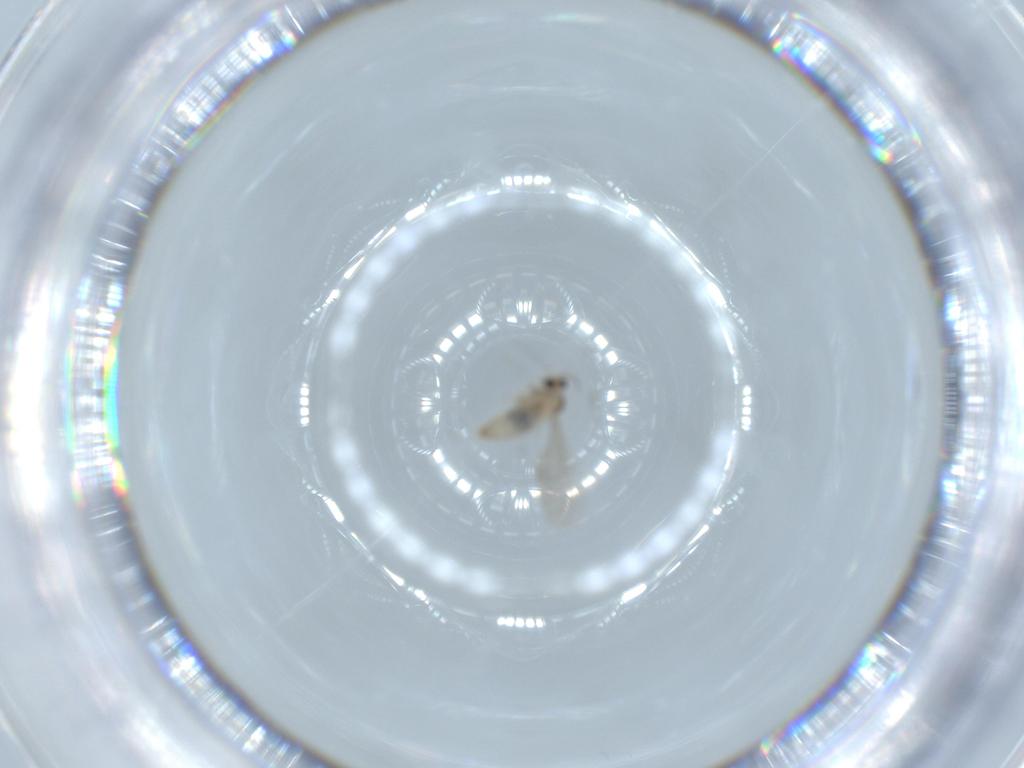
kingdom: Animalia
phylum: Arthropoda
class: Insecta
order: Diptera
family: Cecidomyiidae
